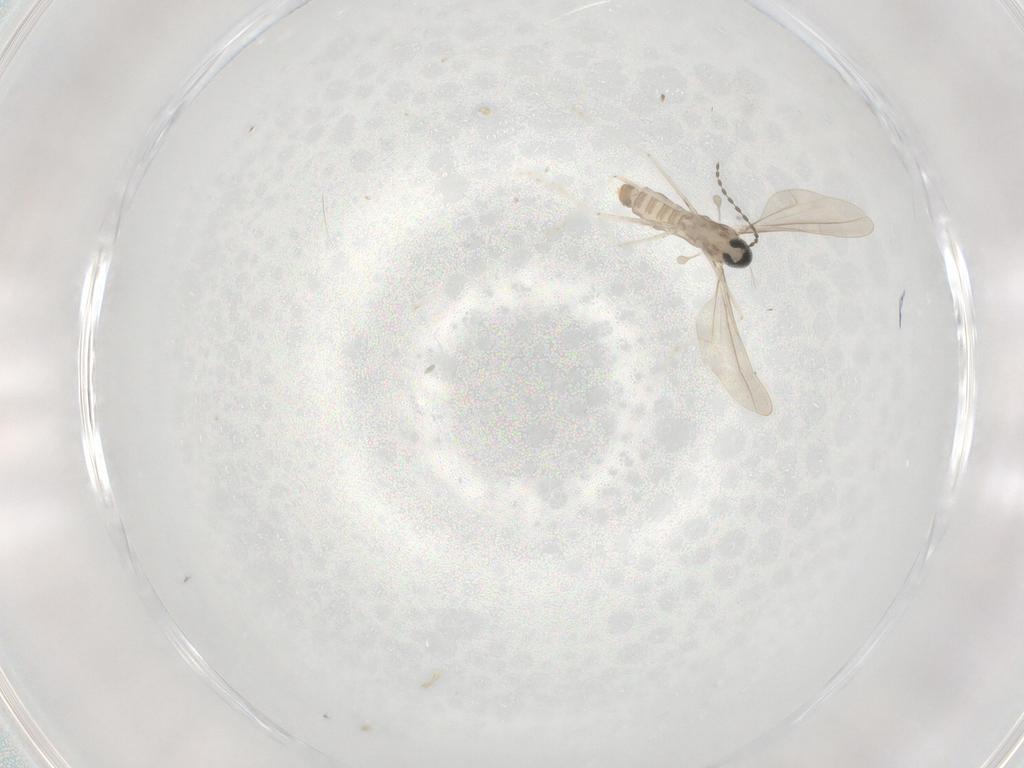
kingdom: Animalia
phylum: Arthropoda
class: Insecta
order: Diptera
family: Cecidomyiidae
